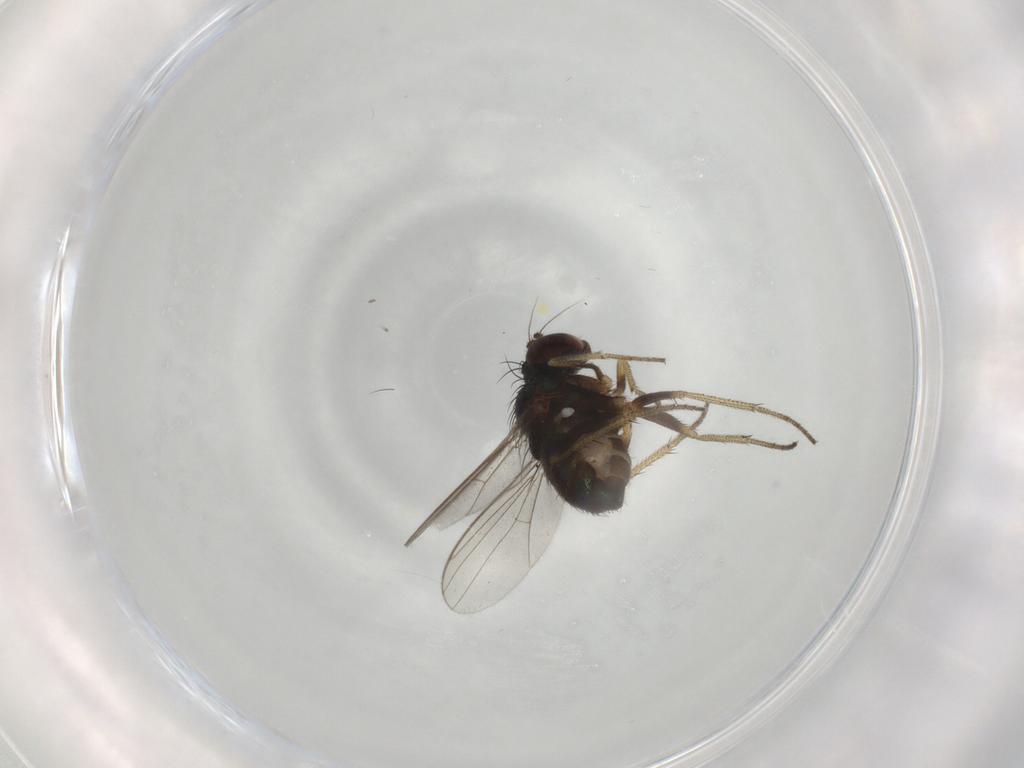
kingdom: Animalia
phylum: Arthropoda
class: Insecta
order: Diptera
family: Dolichopodidae
